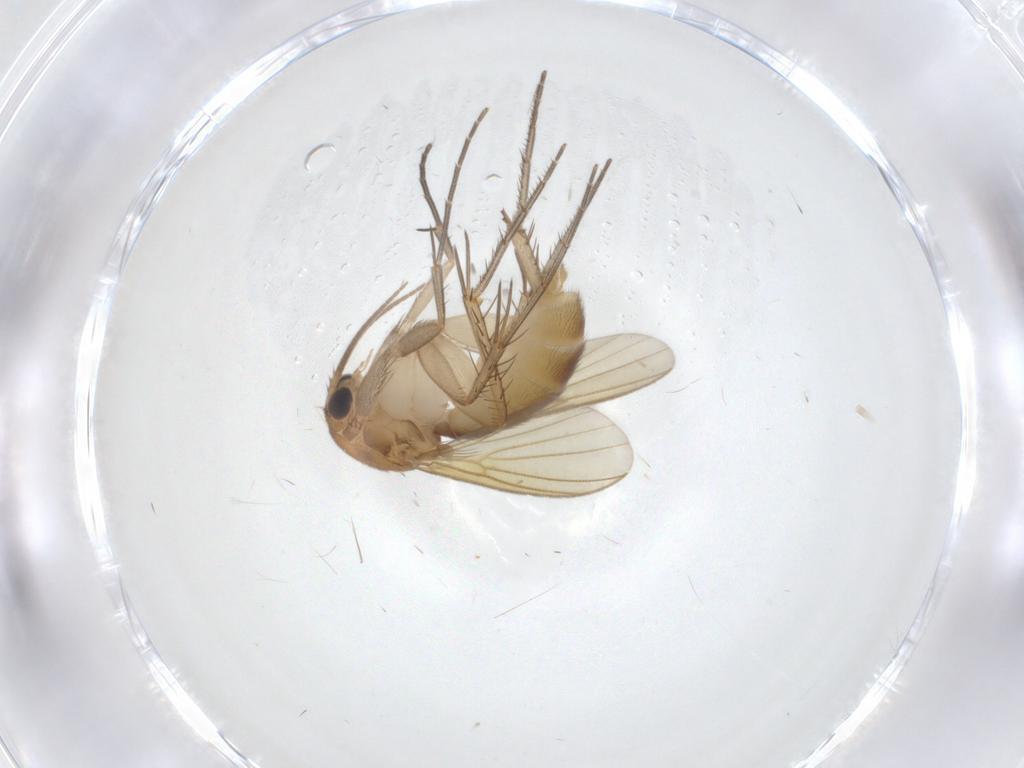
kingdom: Animalia
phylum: Arthropoda
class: Insecta
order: Diptera
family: Mycetophilidae
